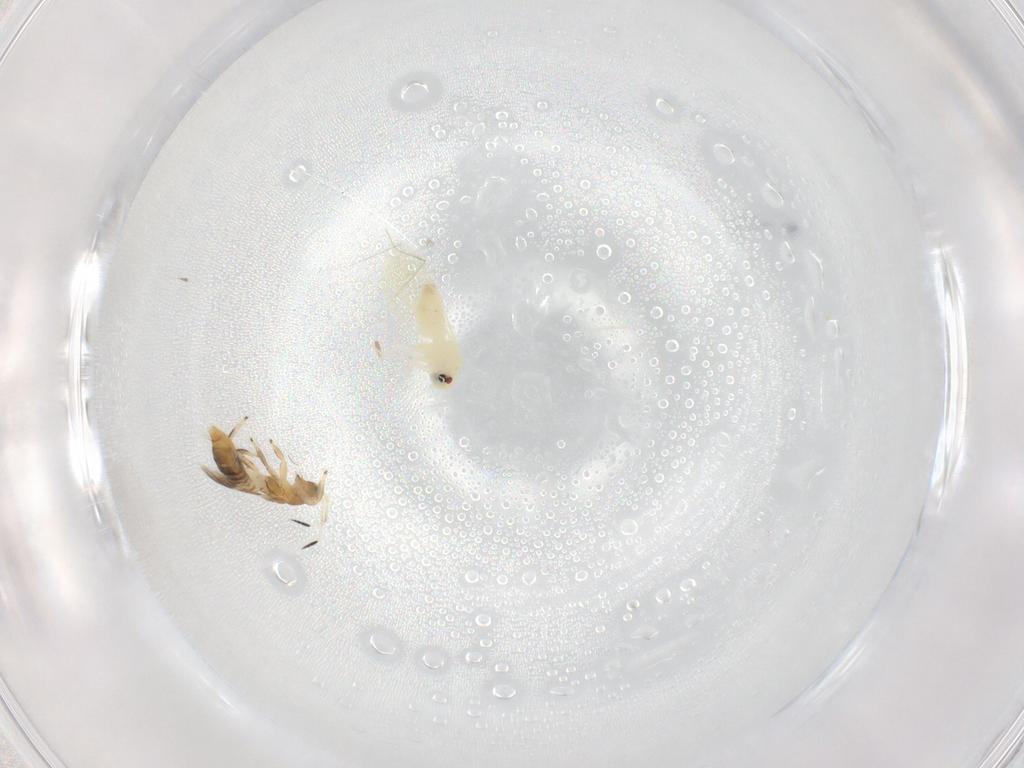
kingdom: Animalia
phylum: Arthropoda
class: Insecta
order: Hemiptera
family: Aleyrodidae
